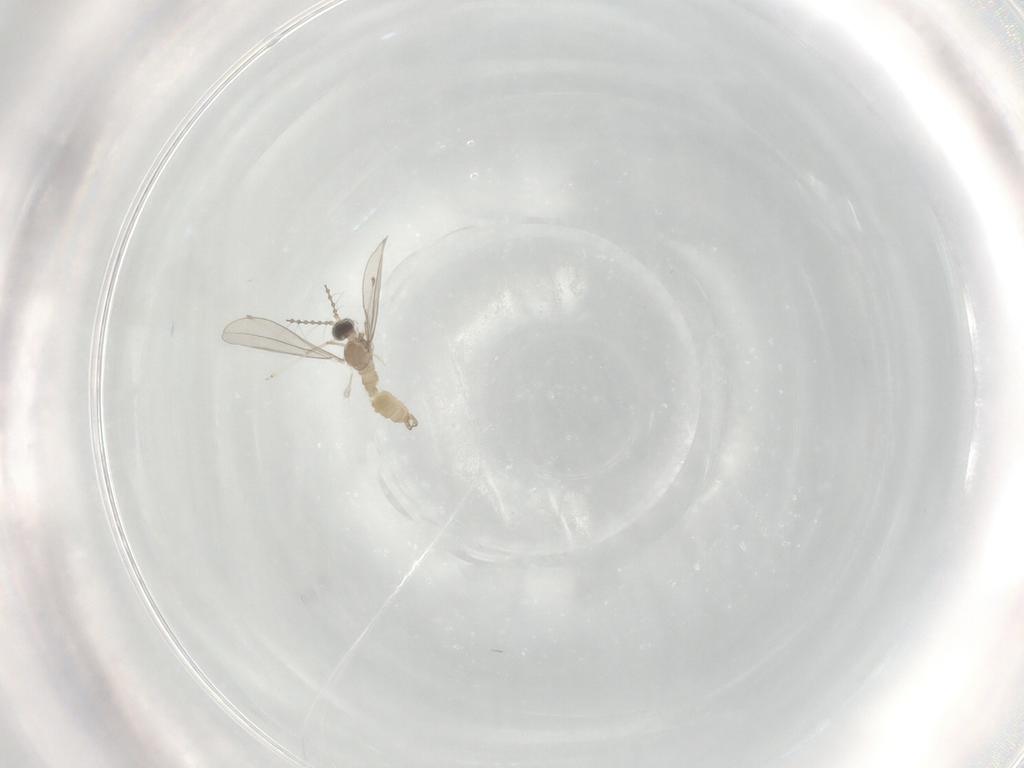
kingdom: Animalia
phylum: Arthropoda
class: Insecta
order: Diptera
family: Cecidomyiidae
